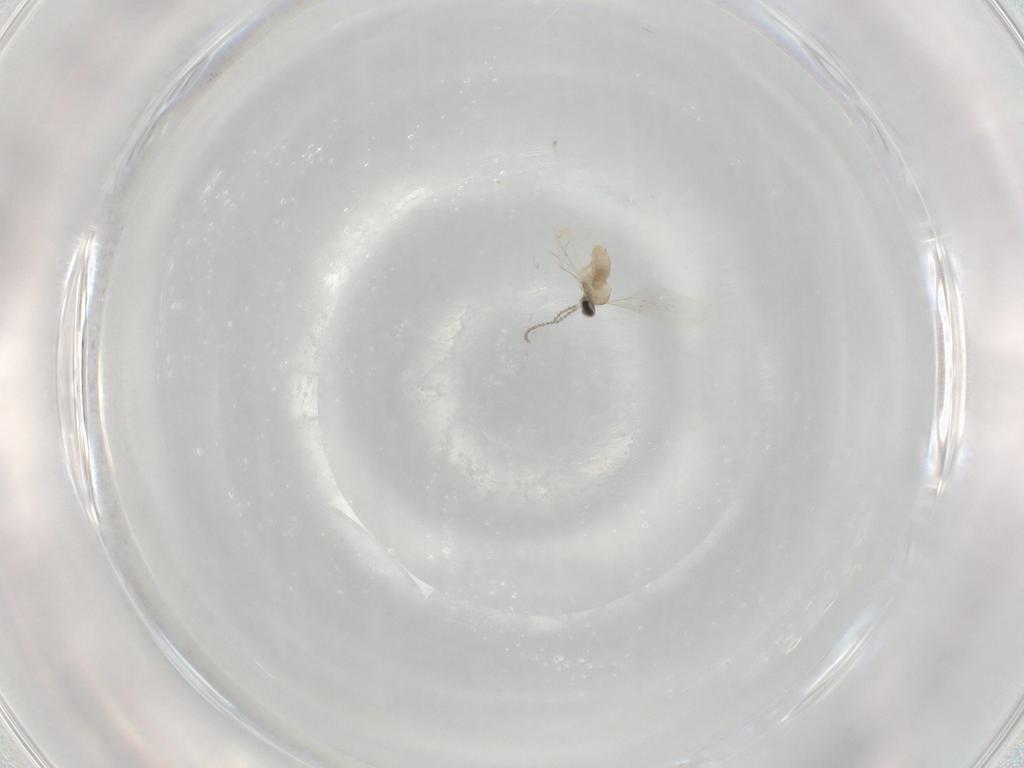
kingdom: Animalia
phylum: Arthropoda
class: Insecta
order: Diptera
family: Cecidomyiidae
